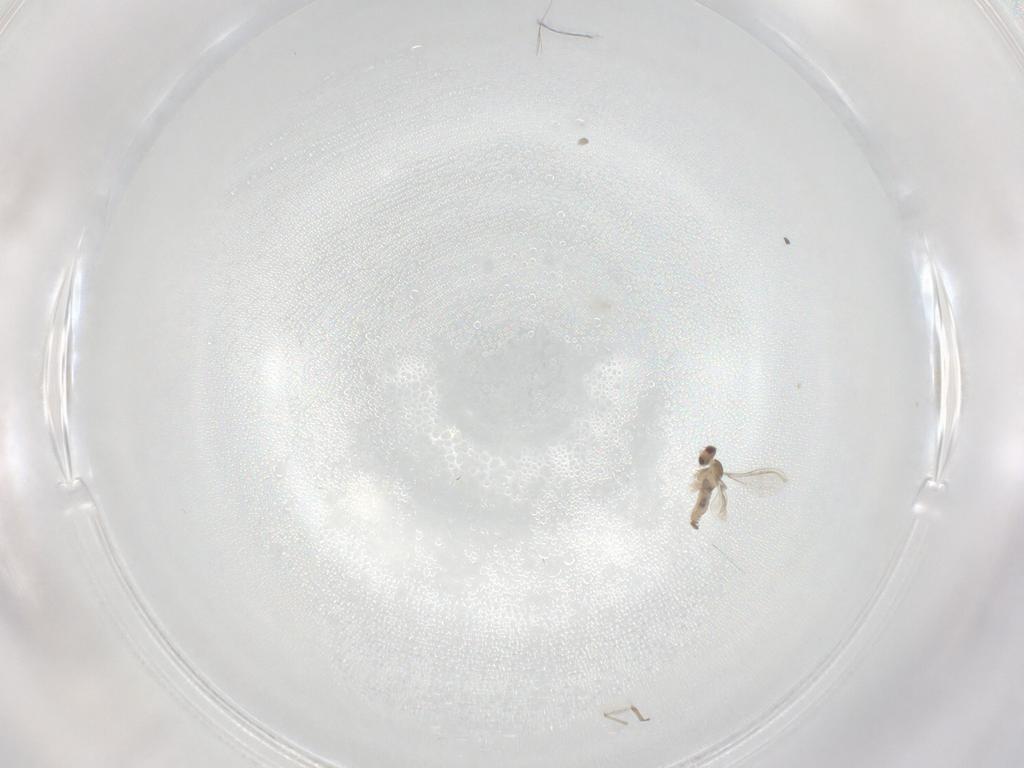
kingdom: Animalia
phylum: Arthropoda
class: Insecta
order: Diptera
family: Cecidomyiidae
